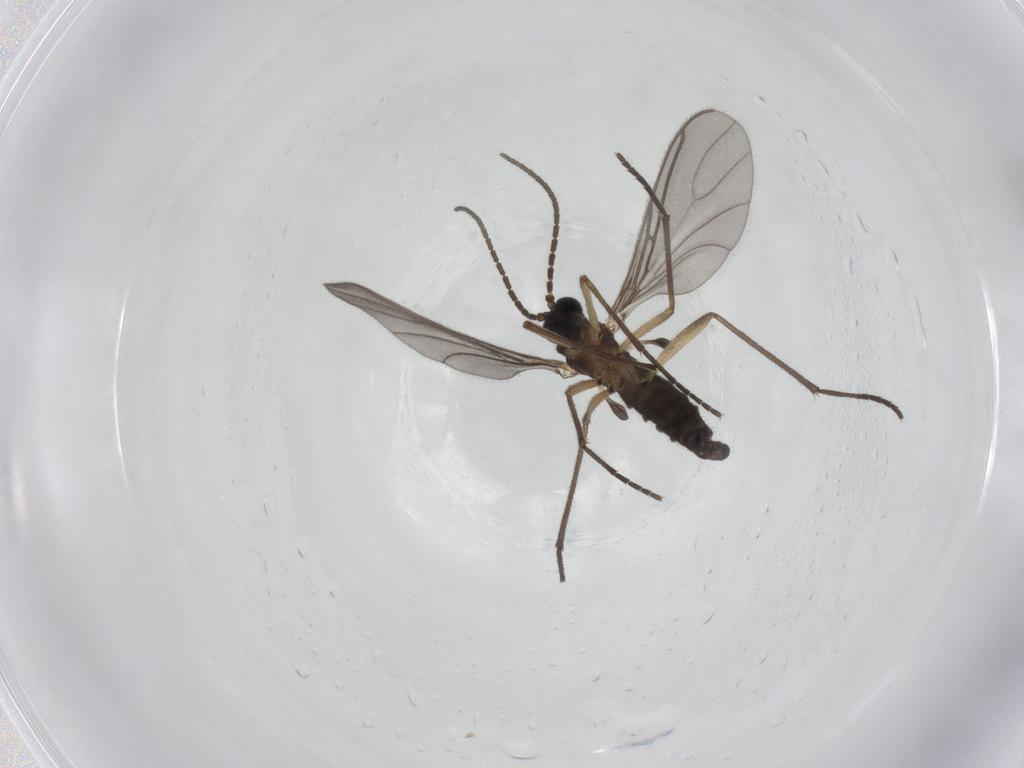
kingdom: Animalia
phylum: Arthropoda
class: Insecta
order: Diptera
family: Sciaridae
